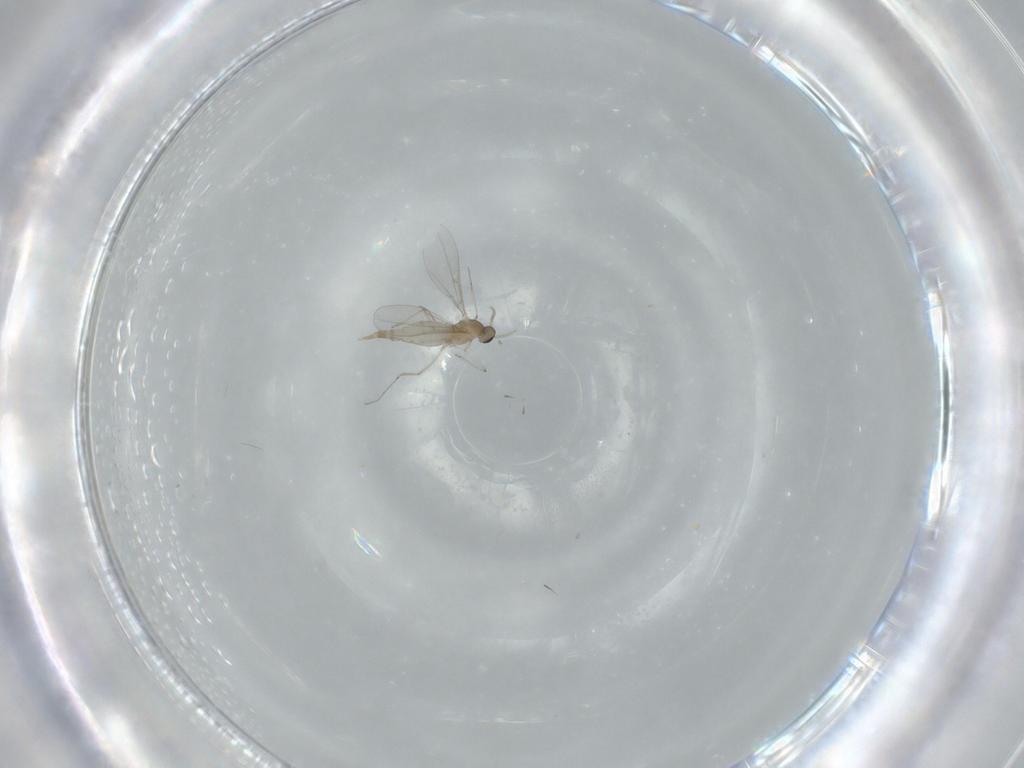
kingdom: Animalia
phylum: Arthropoda
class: Insecta
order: Diptera
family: Cecidomyiidae
